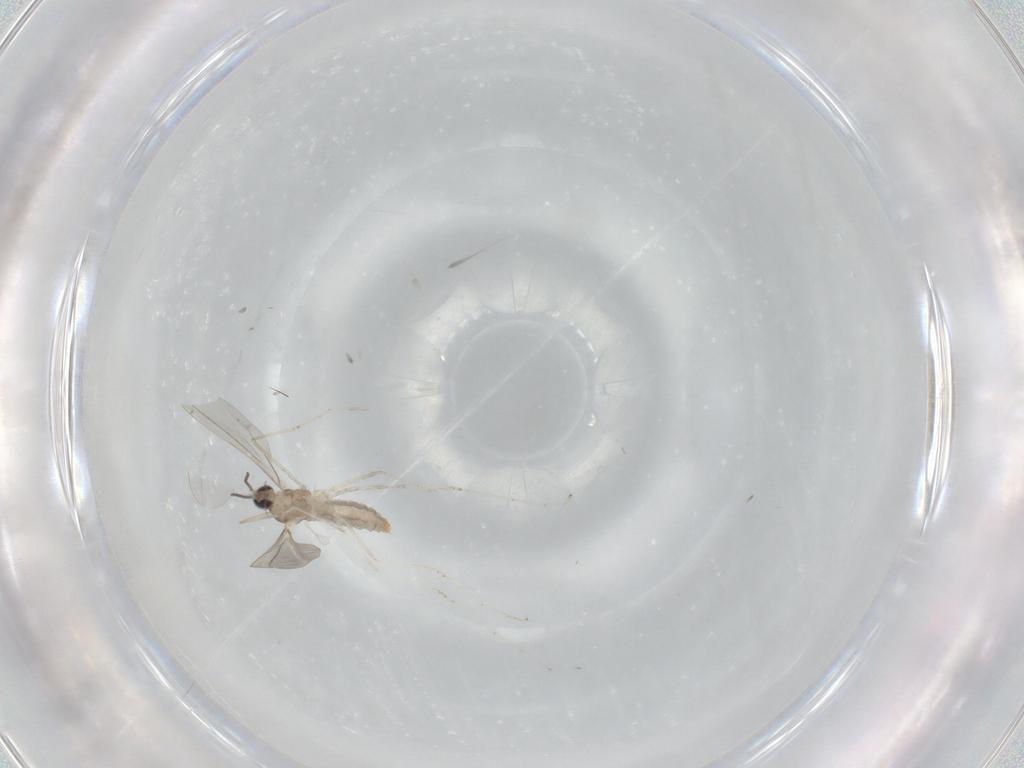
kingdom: Animalia
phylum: Arthropoda
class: Insecta
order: Diptera
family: Cecidomyiidae
